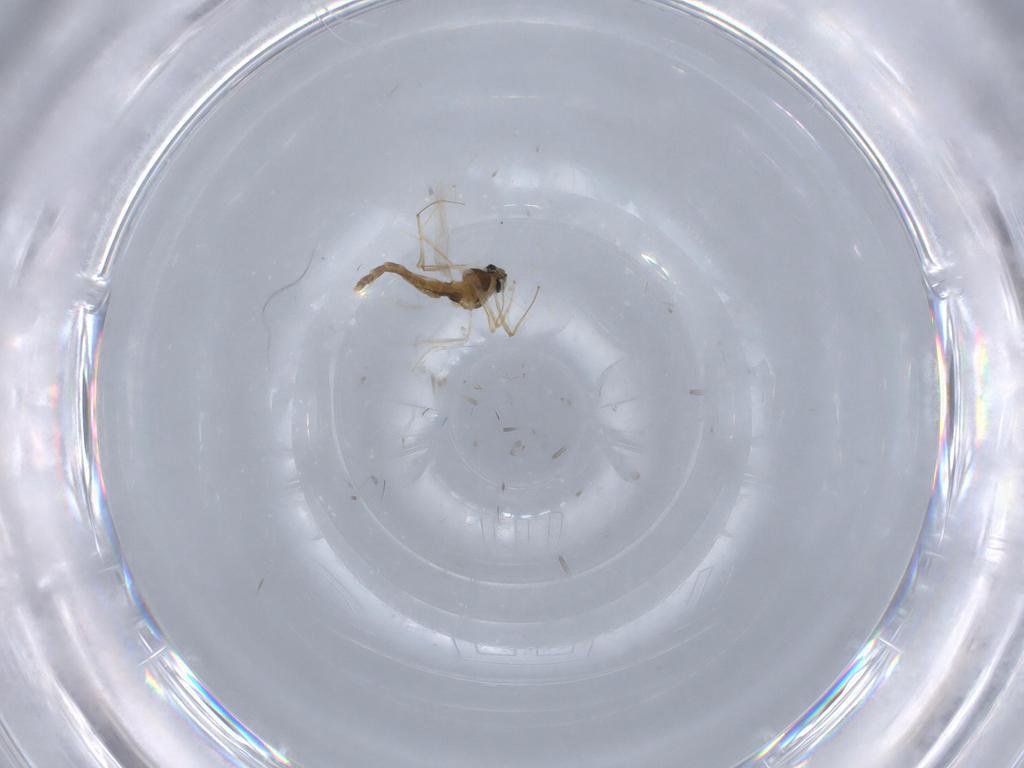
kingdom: Animalia
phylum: Arthropoda
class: Insecta
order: Diptera
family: Chironomidae
